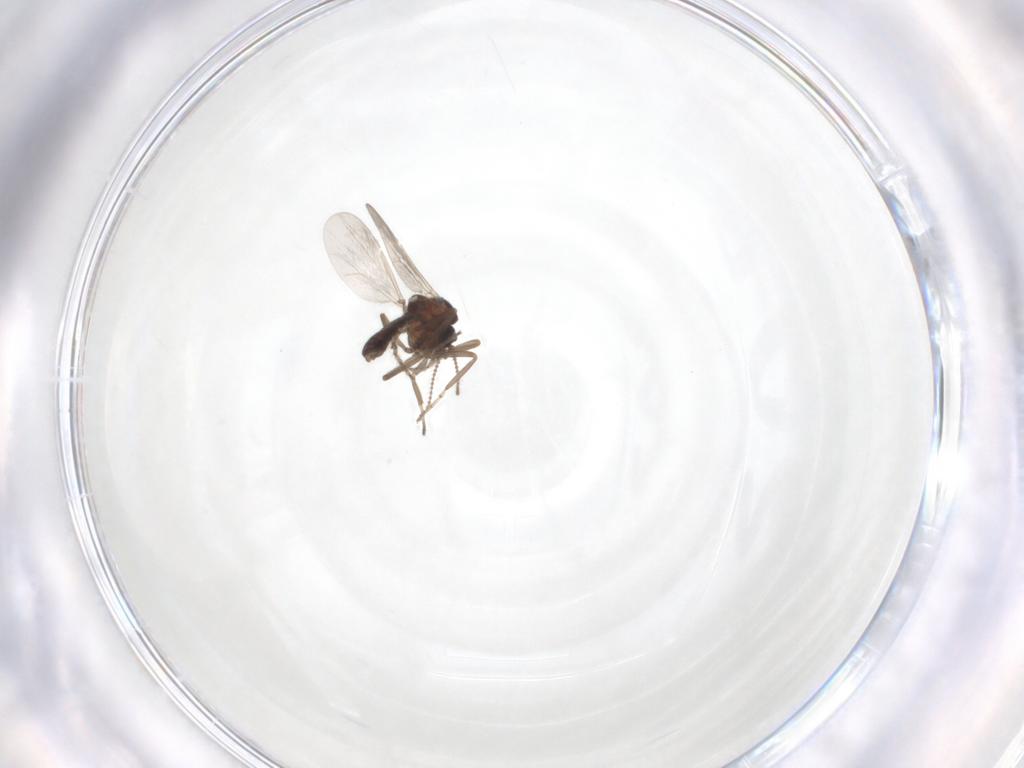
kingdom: Animalia
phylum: Arthropoda
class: Insecta
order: Diptera
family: Ceratopogonidae
